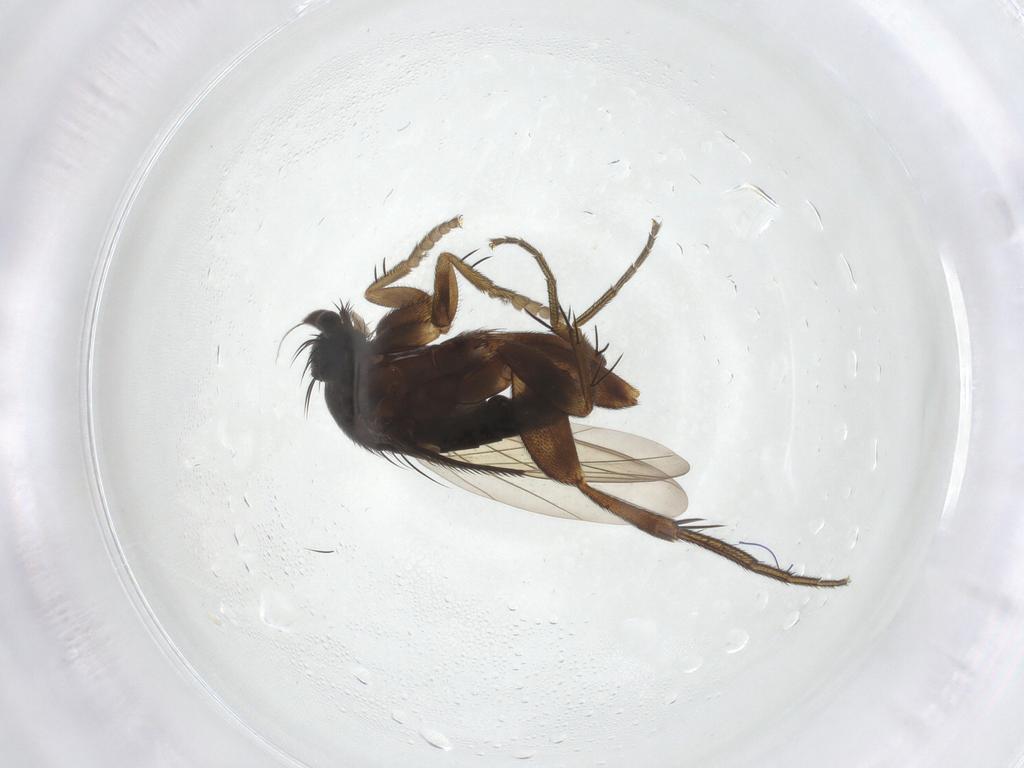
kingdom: Animalia
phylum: Arthropoda
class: Insecta
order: Diptera
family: Phoridae
